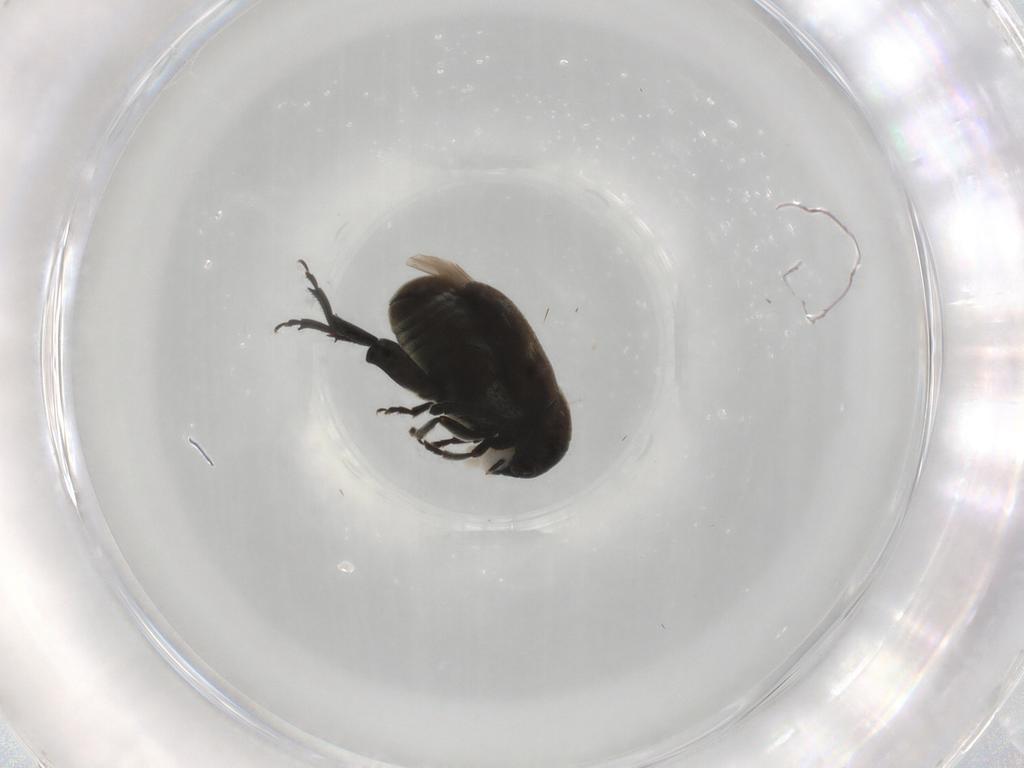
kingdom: Animalia
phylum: Arthropoda
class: Insecta
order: Coleoptera
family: Chrysomelidae
